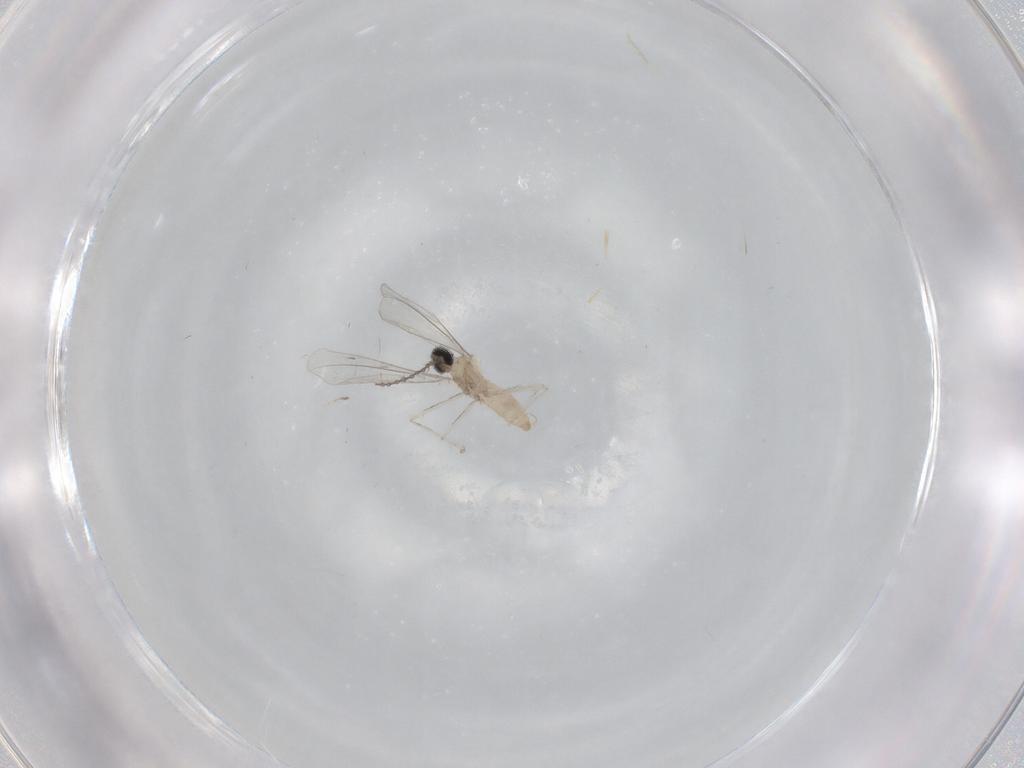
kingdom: Animalia
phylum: Arthropoda
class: Insecta
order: Diptera
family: Cecidomyiidae
